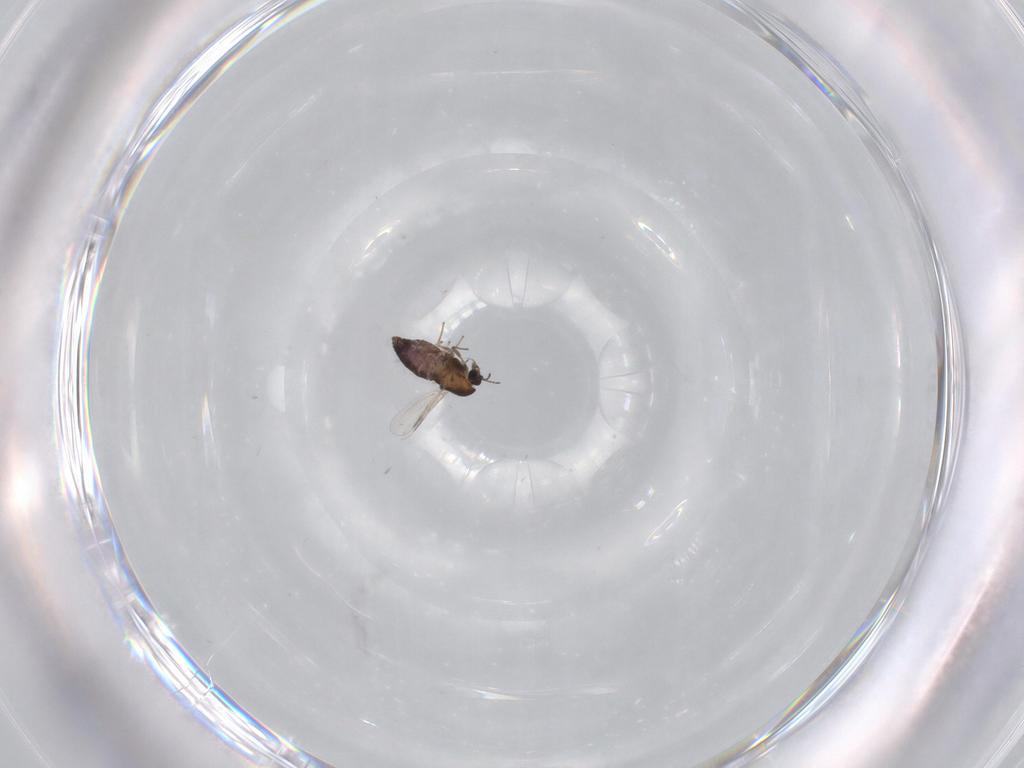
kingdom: Animalia
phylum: Arthropoda
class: Insecta
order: Diptera
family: Chironomidae
